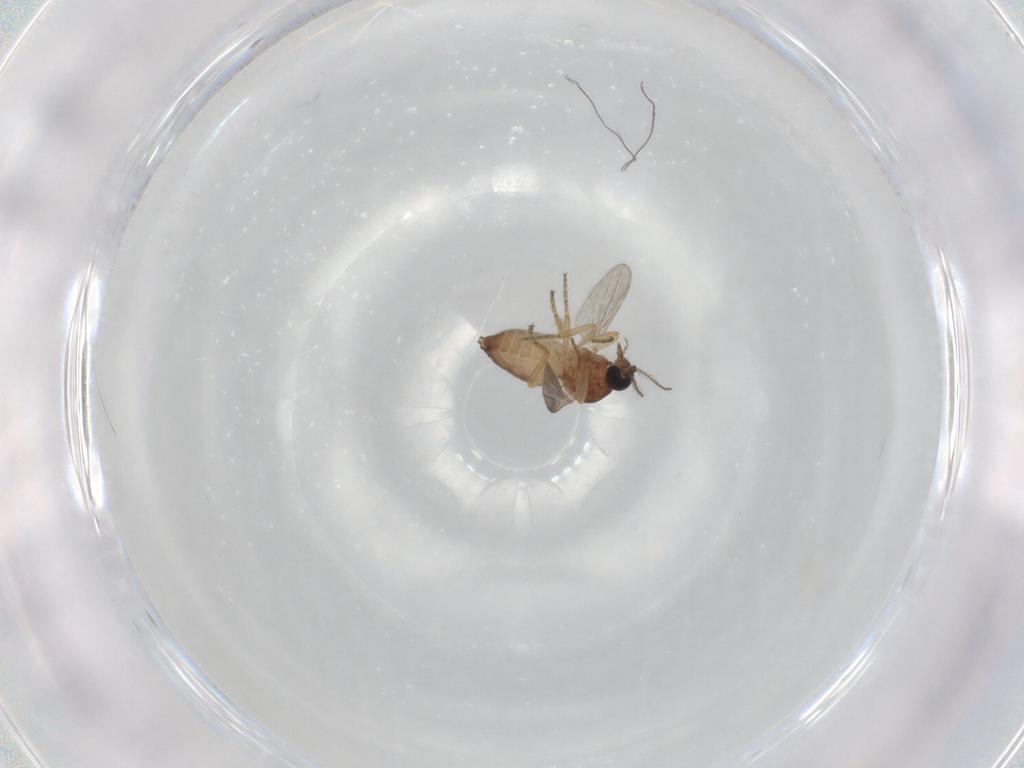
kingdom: Animalia
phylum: Arthropoda
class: Insecta
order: Diptera
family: Ceratopogonidae
